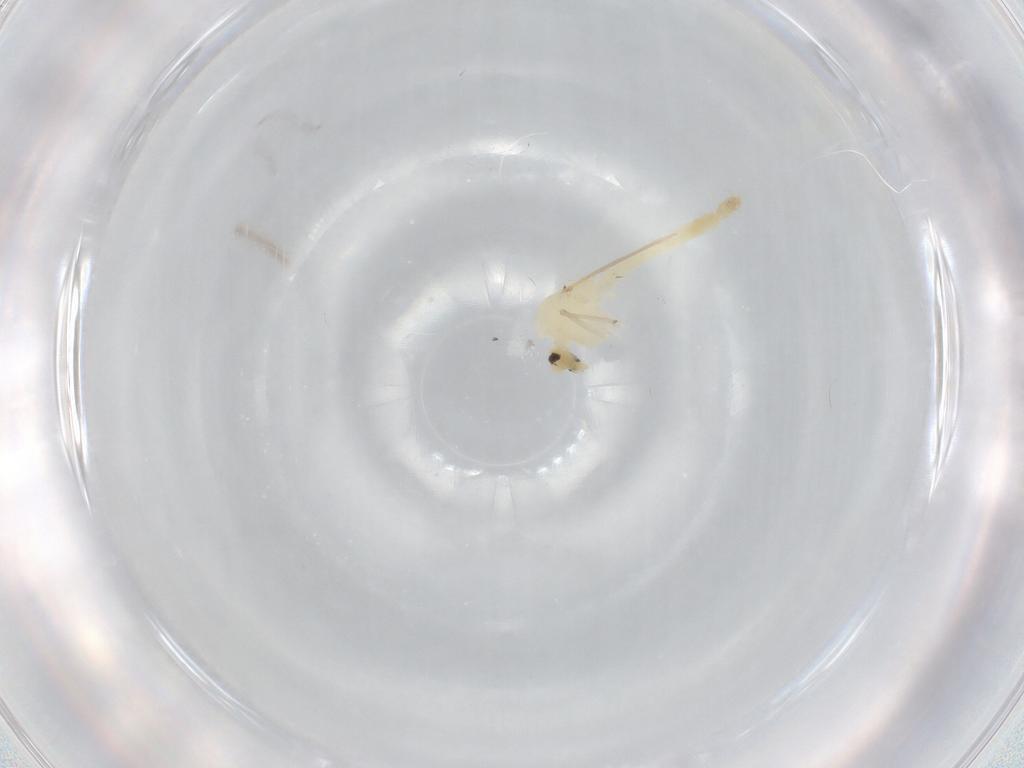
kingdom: Animalia
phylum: Arthropoda
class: Insecta
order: Diptera
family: Chironomidae
